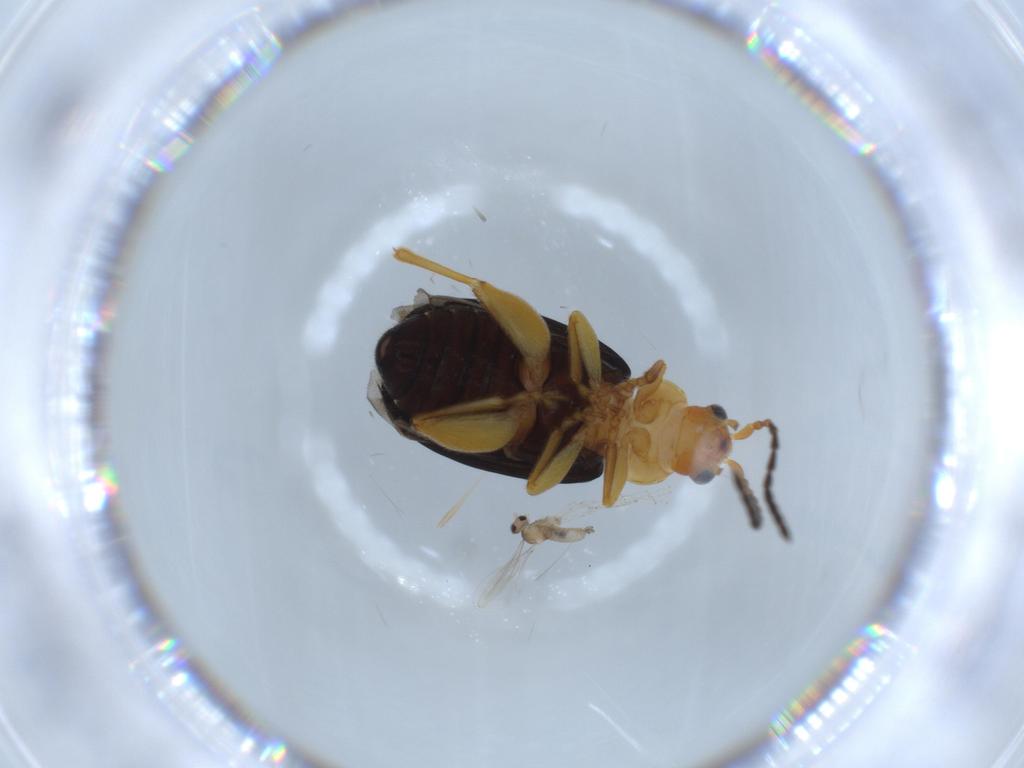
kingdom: Animalia
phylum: Arthropoda
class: Insecta
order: Coleoptera
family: Chrysomelidae
